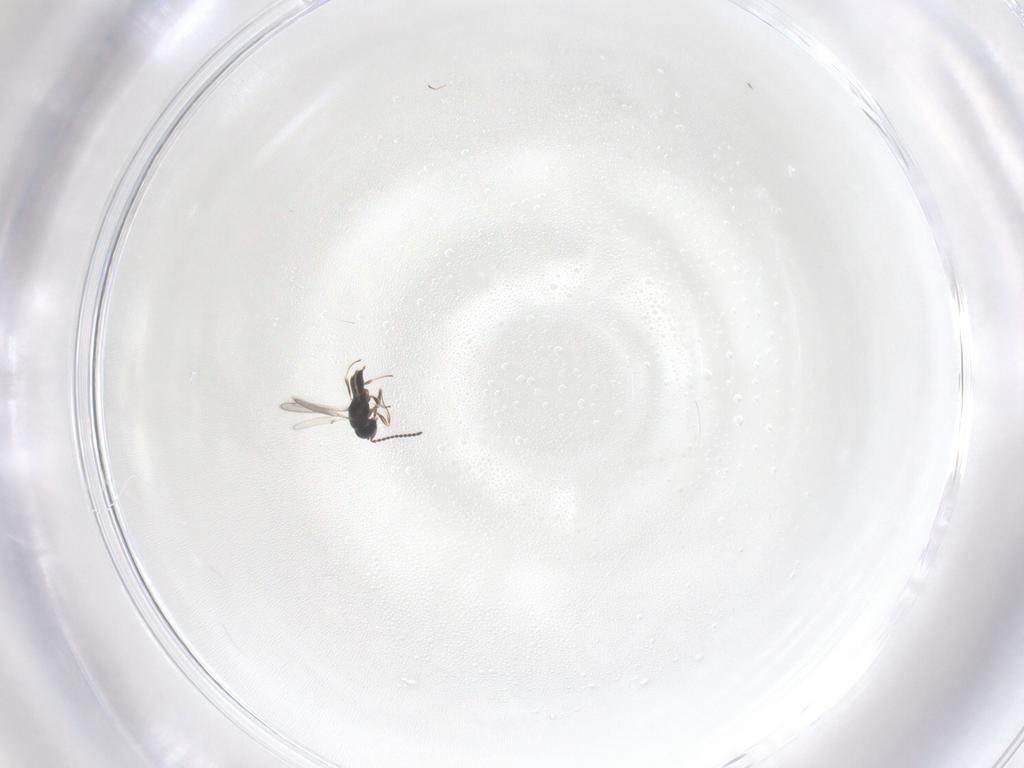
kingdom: Animalia
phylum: Arthropoda
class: Insecta
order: Hymenoptera
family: Scelionidae
